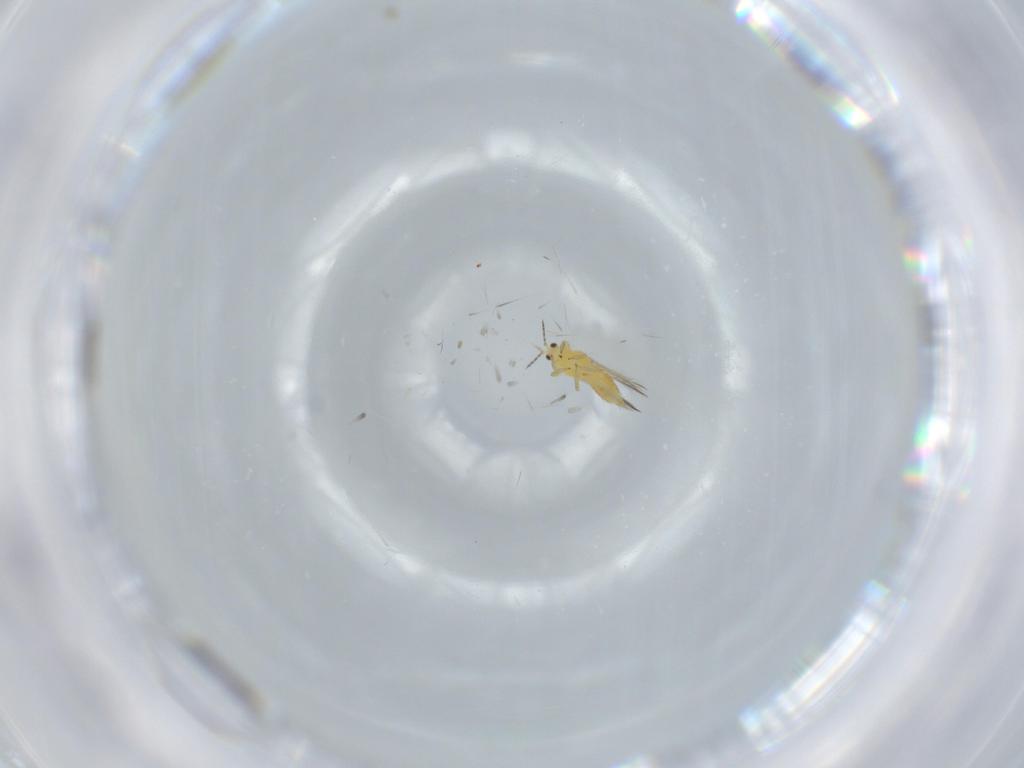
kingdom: Animalia
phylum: Arthropoda
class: Insecta
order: Thysanoptera
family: Thripidae
